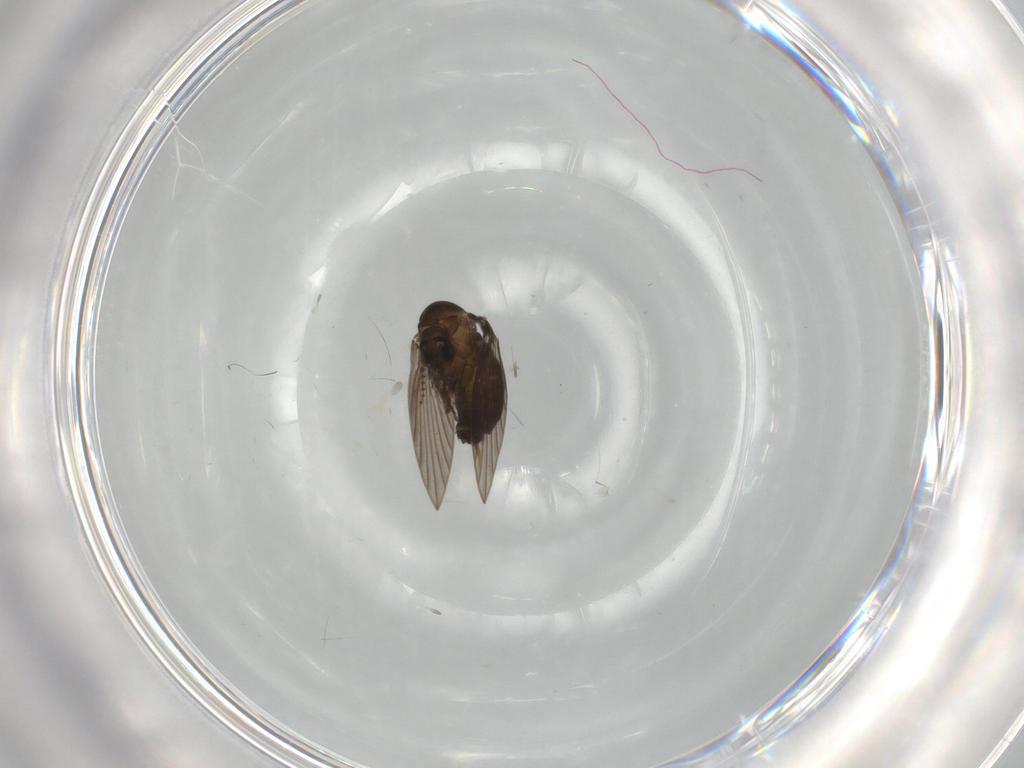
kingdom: Animalia
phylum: Arthropoda
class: Insecta
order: Diptera
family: Psychodidae
